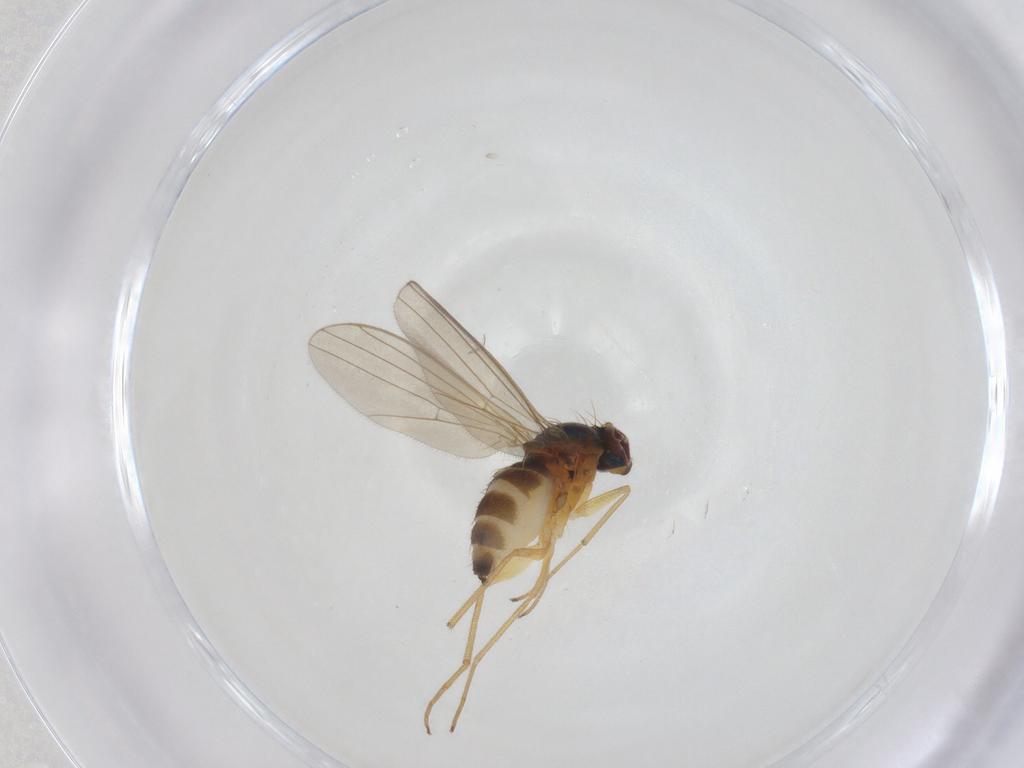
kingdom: Animalia
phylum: Arthropoda
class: Insecta
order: Diptera
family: Dolichopodidae
